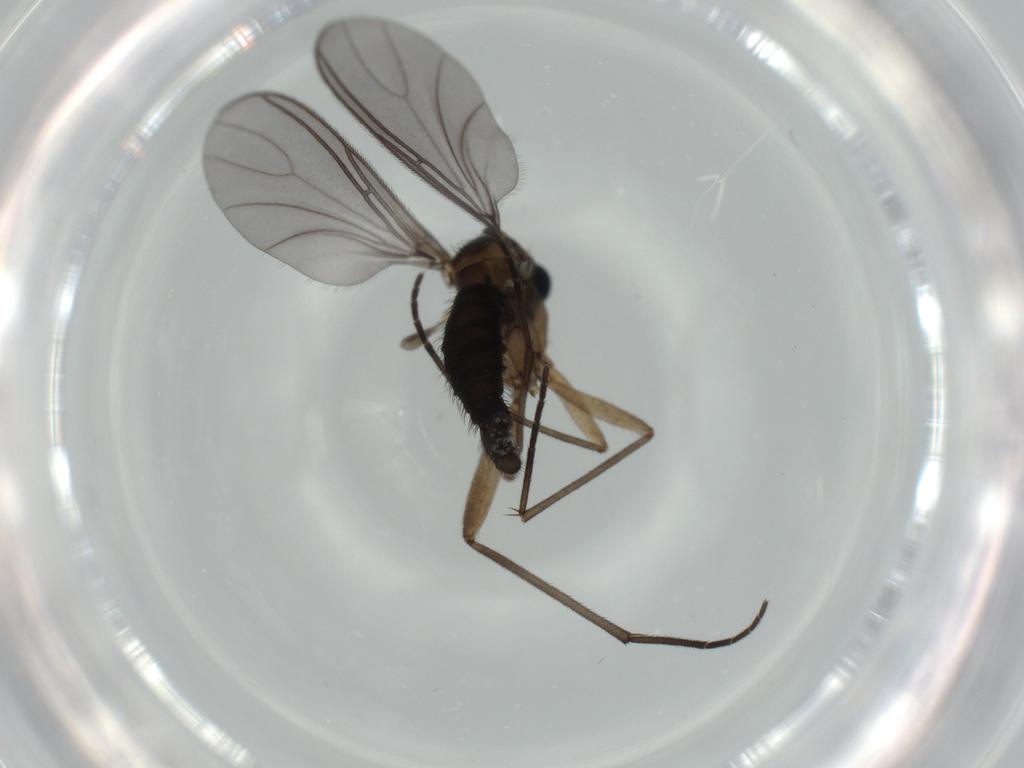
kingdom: Animalia
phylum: Arthropoda
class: Insecta
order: Diptera
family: Sciaridae
